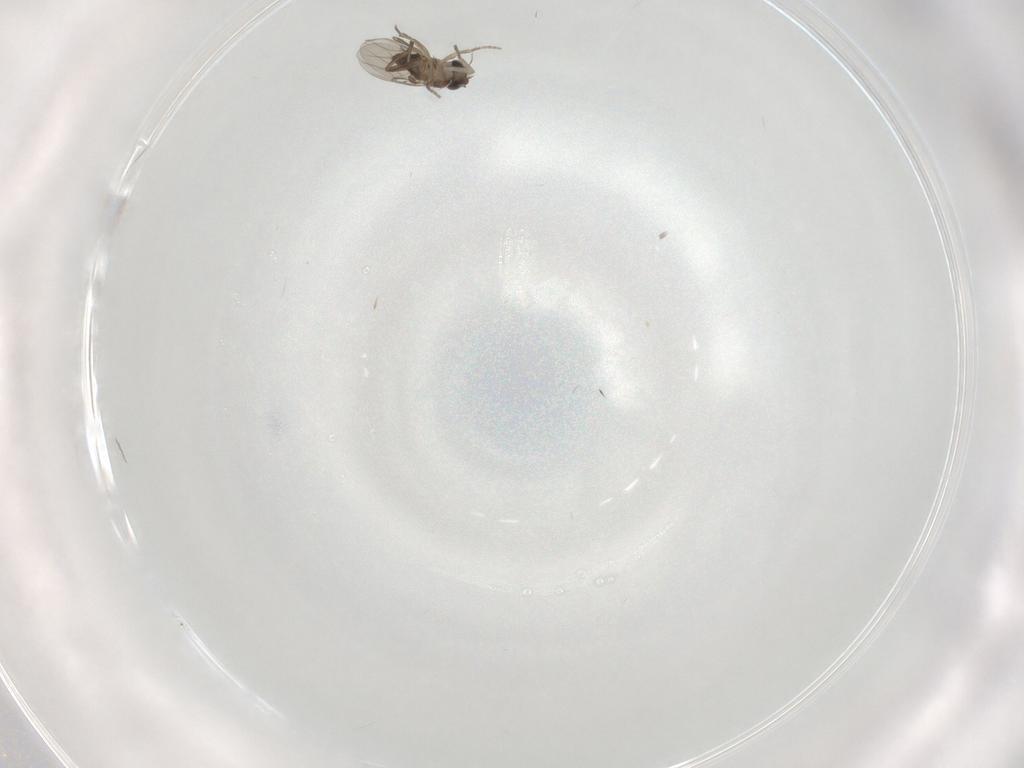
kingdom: Animalia
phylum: Arthropoda
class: Insecta
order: Diptera
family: Phoridae
